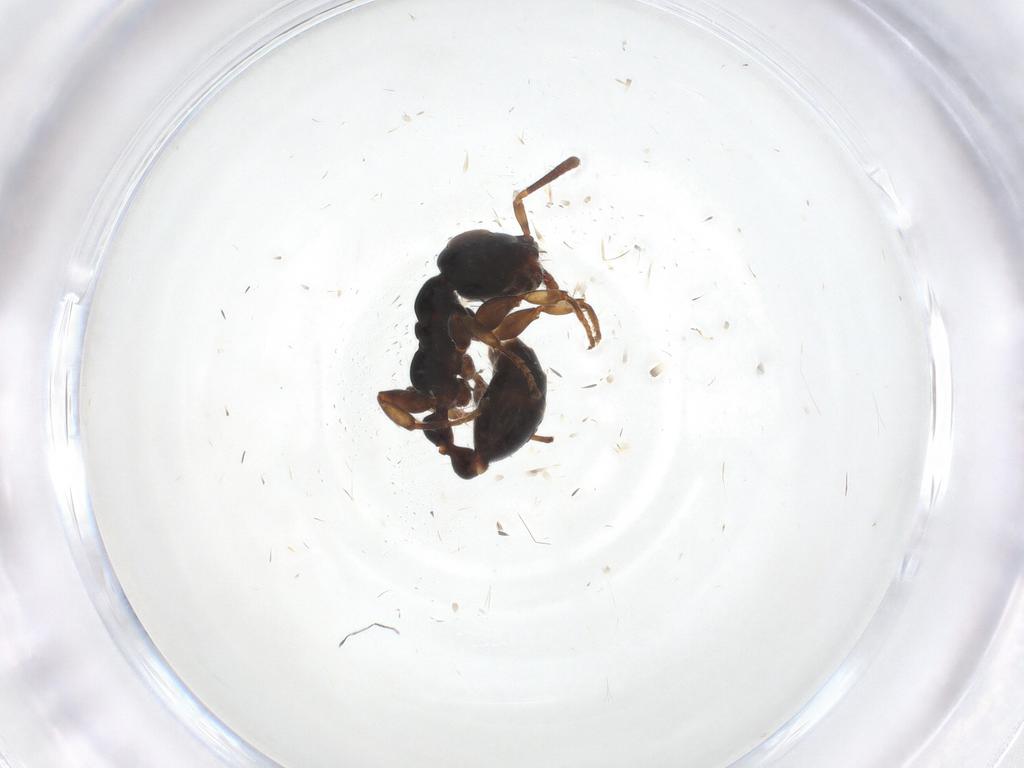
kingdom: Animalia
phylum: Arthropoda
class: Insecta
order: Hymenoptera
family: Formicidae
